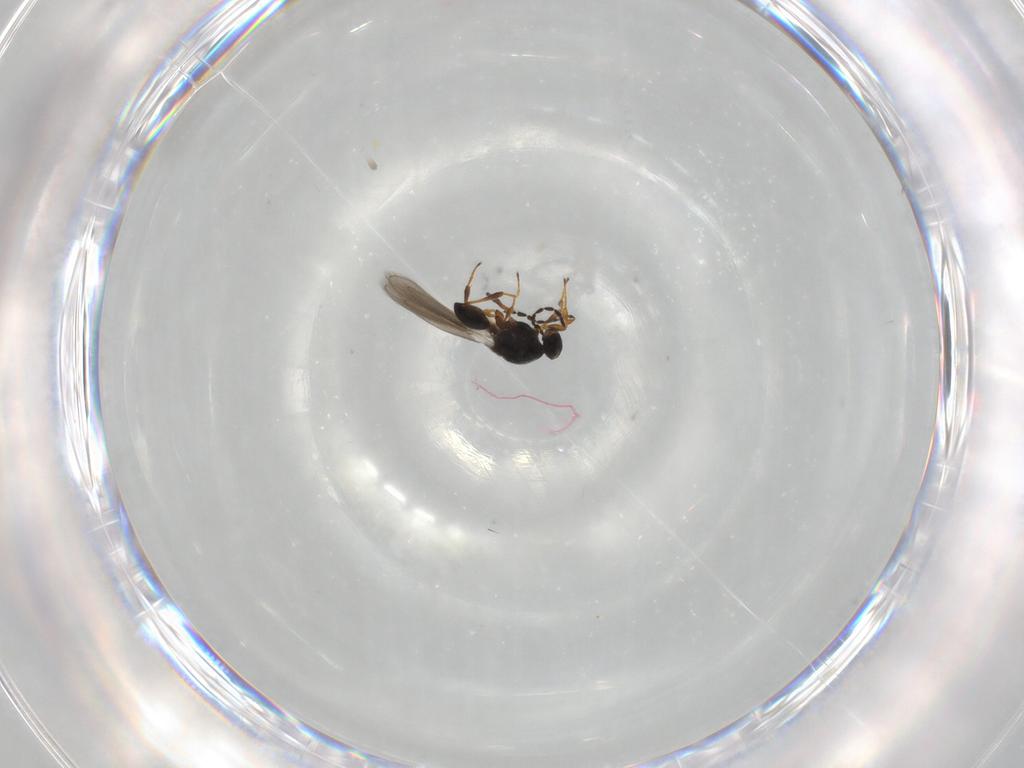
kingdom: Animalia
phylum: Arthropoda
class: Insecta
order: Hymenoptera
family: Platygastridae
